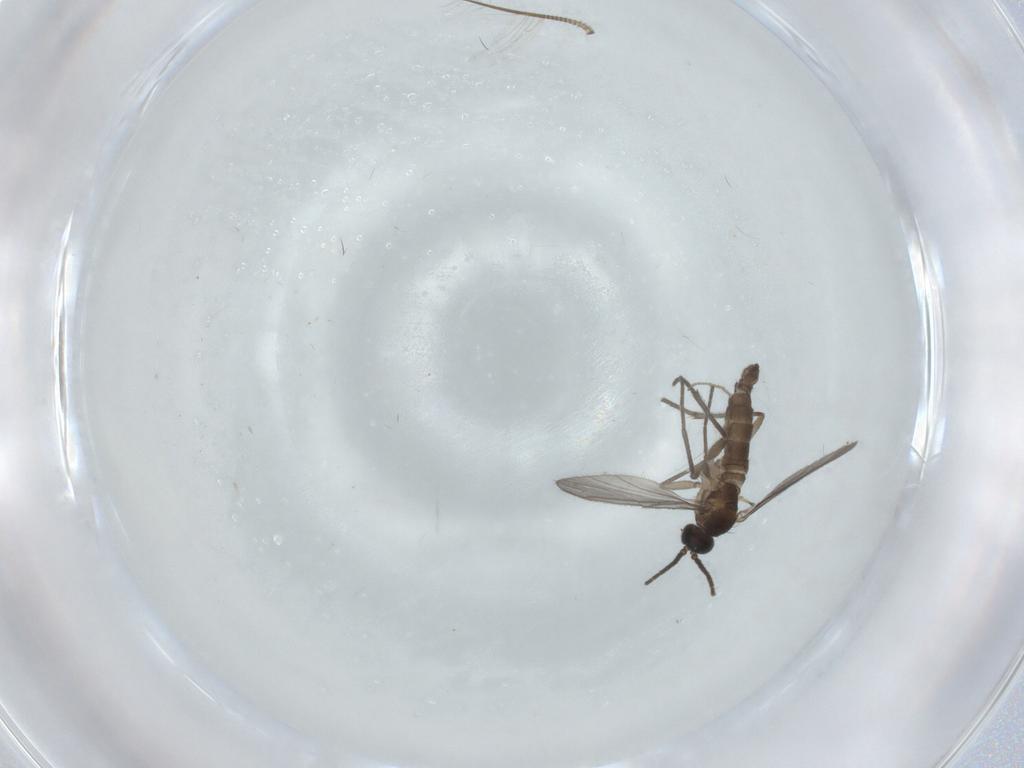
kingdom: Animalia
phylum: Arthropoda
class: Insecta
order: Diptera
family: Sciaridae
